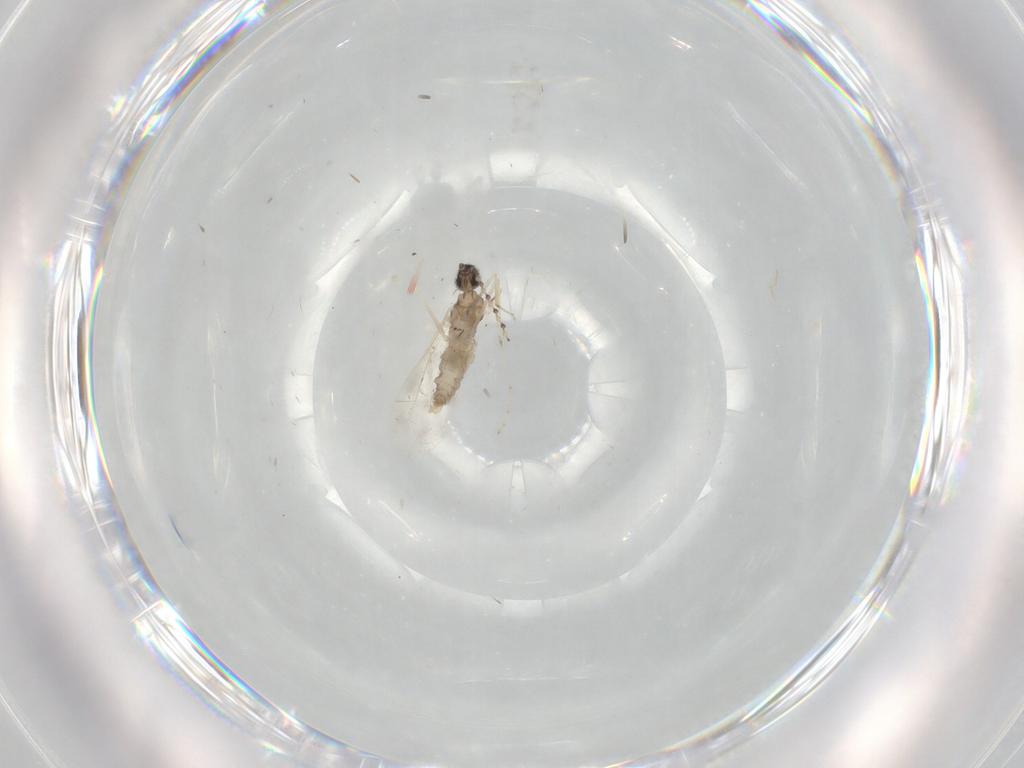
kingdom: Animalia
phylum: Arthropoda
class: Insecta
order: Diptera
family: Cecidomyiidae
